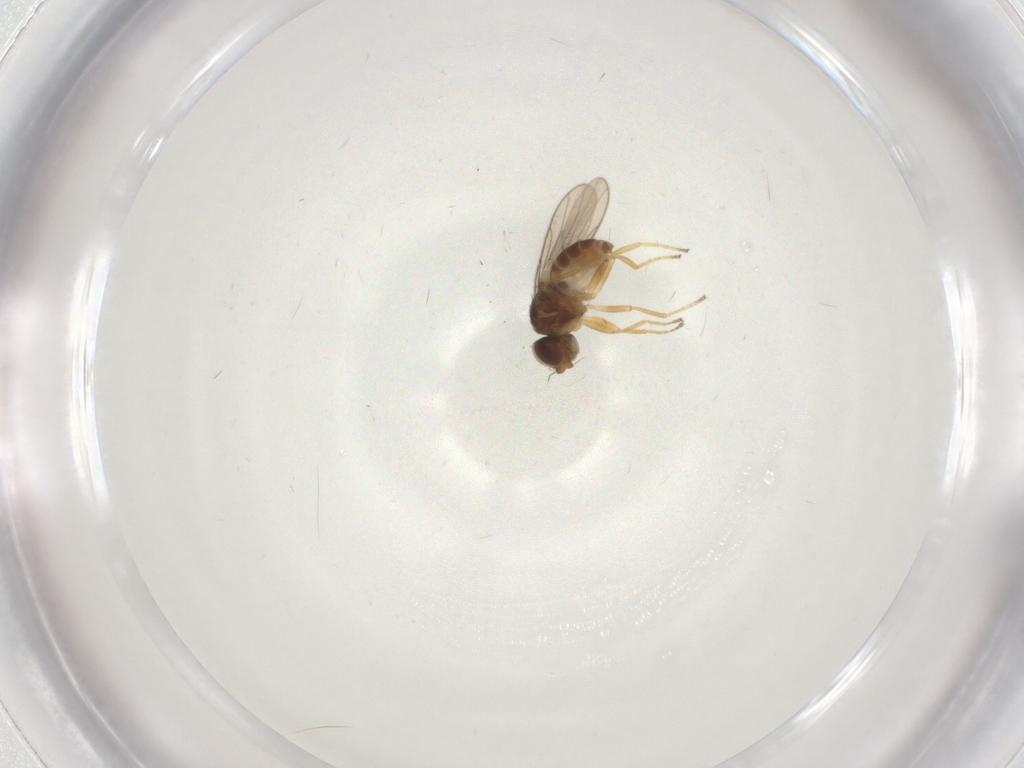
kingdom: Animalia
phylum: Arthropoda
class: Insecta
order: Diptera
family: Chloropidae
